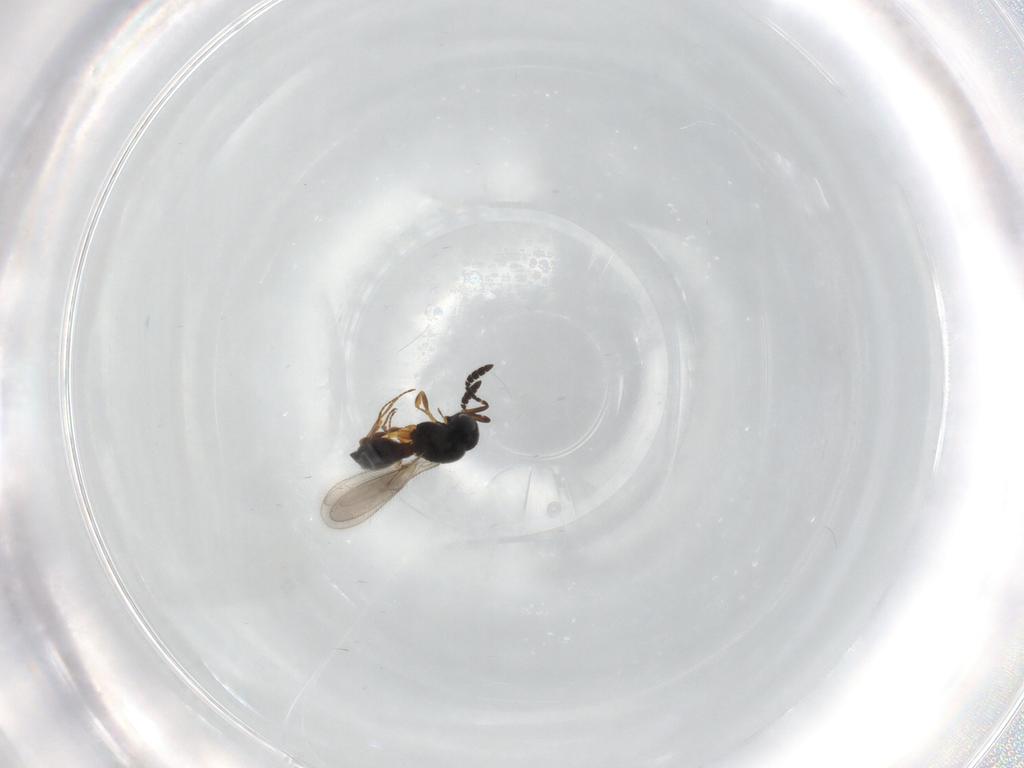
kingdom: Animalia
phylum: Arthropoda
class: Insecta
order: Hymenoptera
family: Scelionidae
